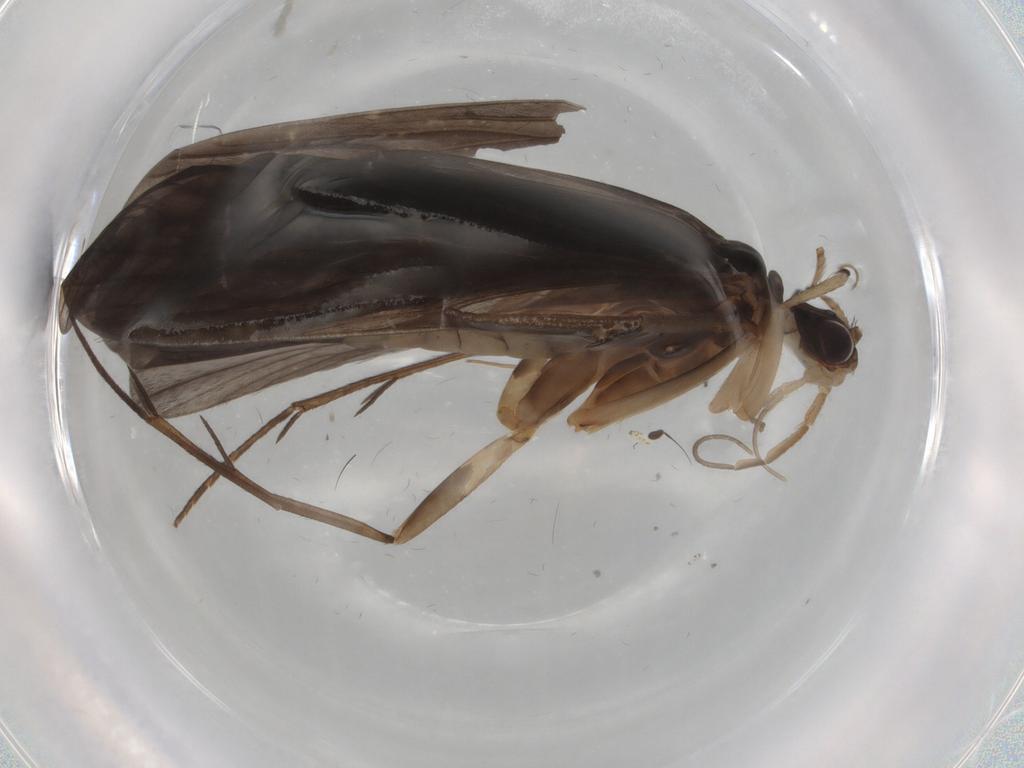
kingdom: Animalia
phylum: Arthropoda
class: Insecta
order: Trichoptera
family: Philopotamidae
